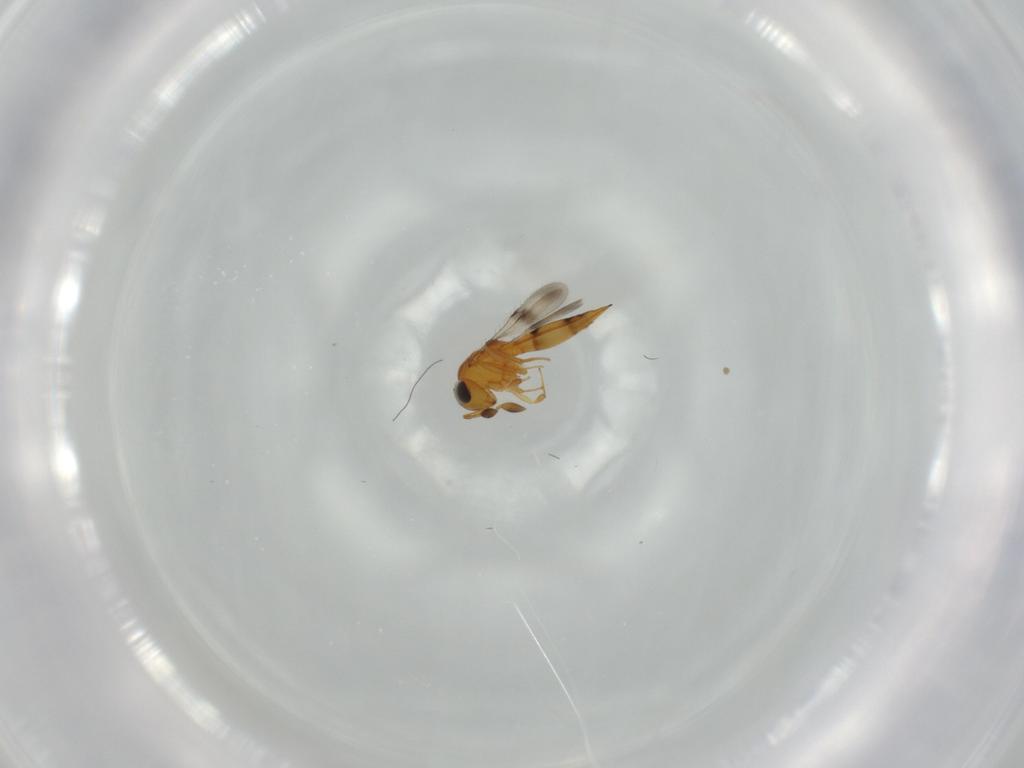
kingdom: Animalia
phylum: Arthropoda
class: Insecta
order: Hymenoptera
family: Scelionidae
